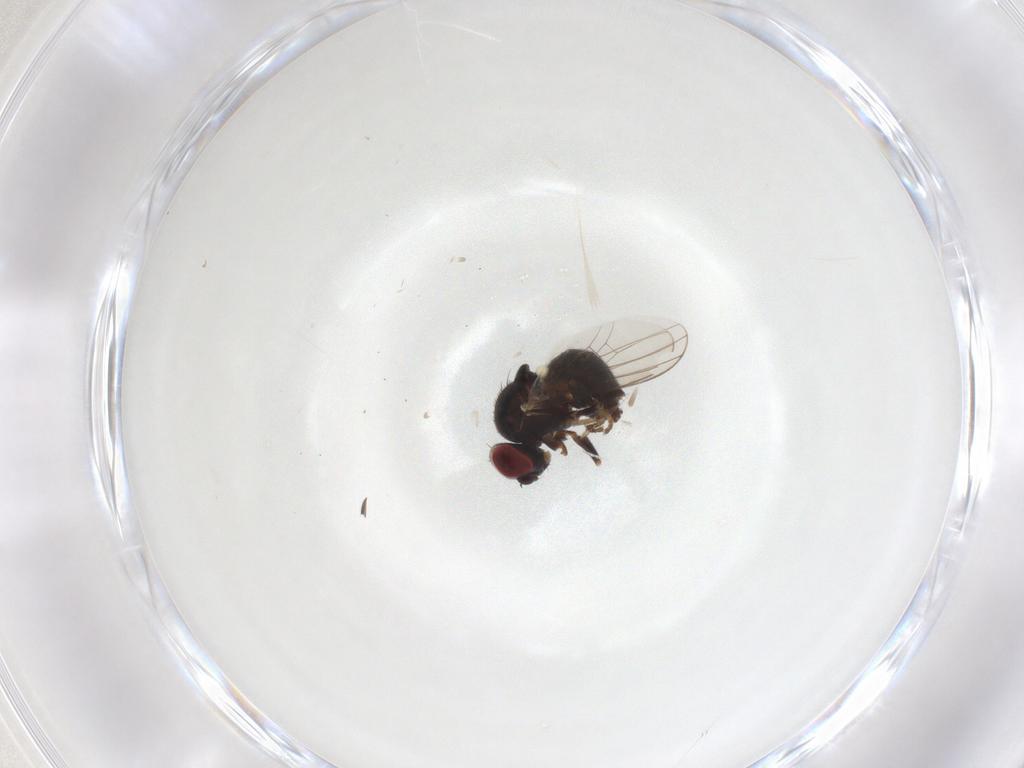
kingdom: Animalia
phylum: Arthropoda
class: Insecta
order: Diptera
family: Chamaemyiidae
